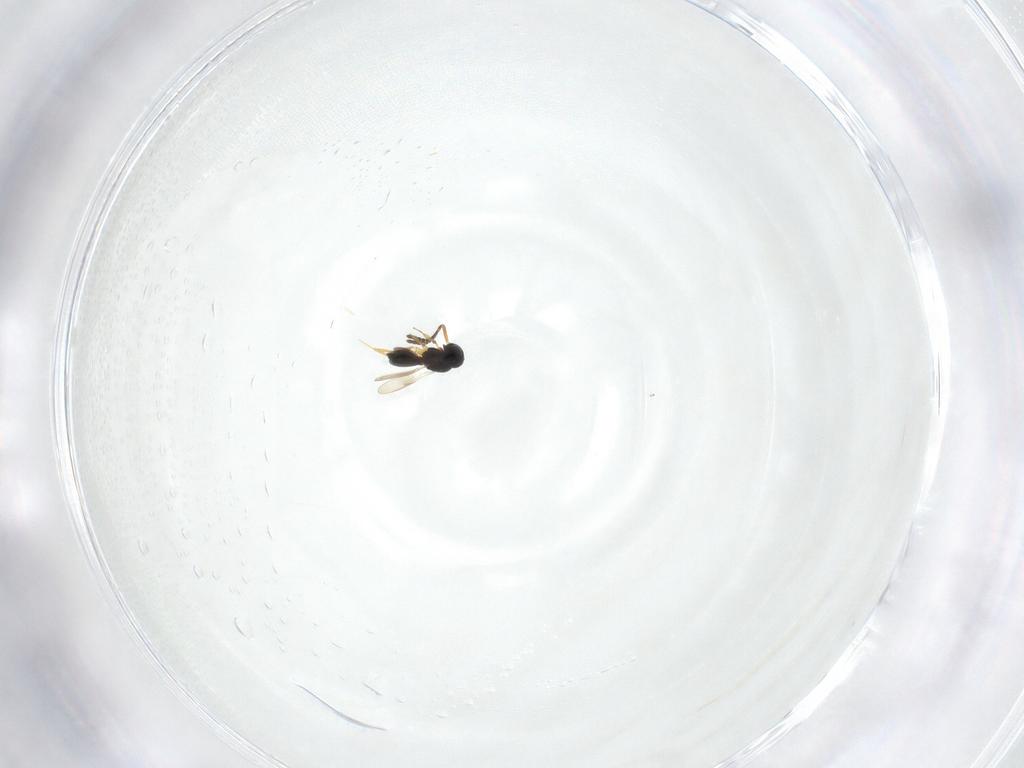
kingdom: Animalia
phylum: Arthropoda
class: Insecta
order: Hymenoptera
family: Scelionidae
